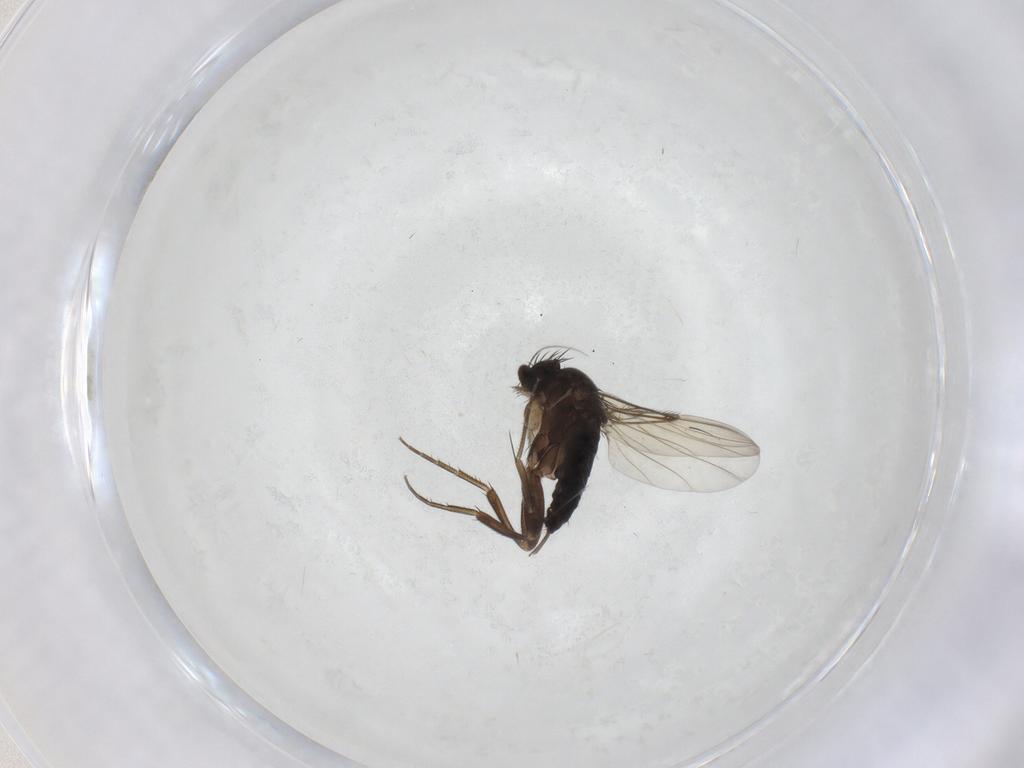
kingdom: Animalia
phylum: Arthropoda
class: Insecta
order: Diptera
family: Phoridae
